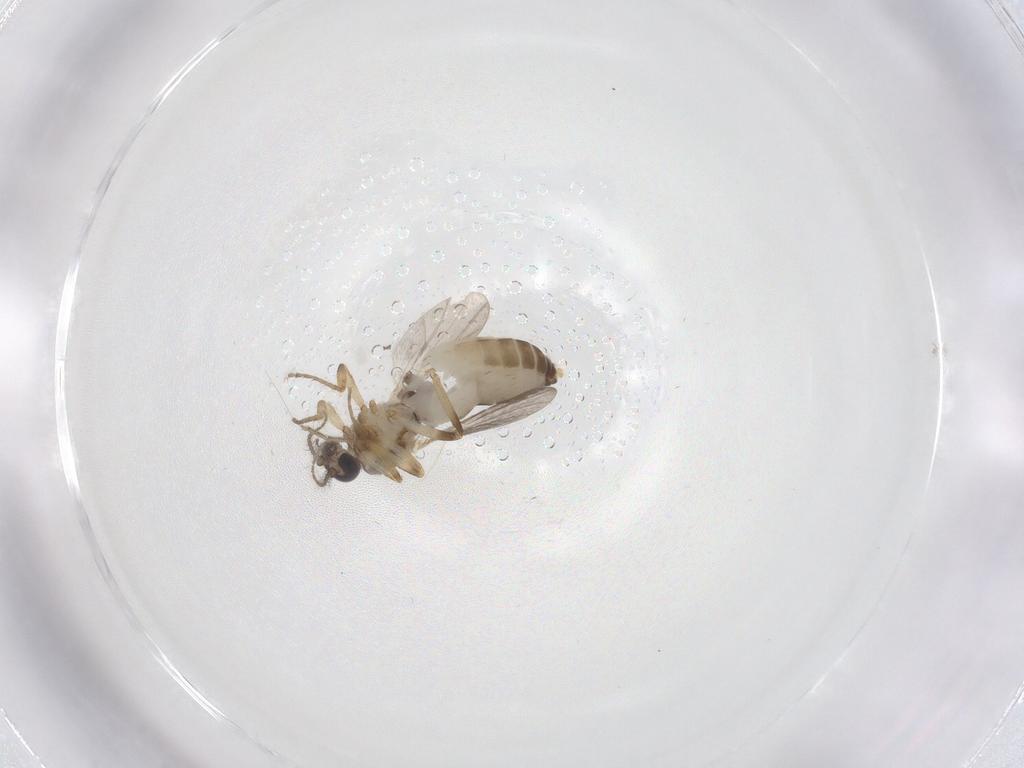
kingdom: Animalia
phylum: Arthropoda
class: Insecta
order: Diptera
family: Ceratopogonidae
